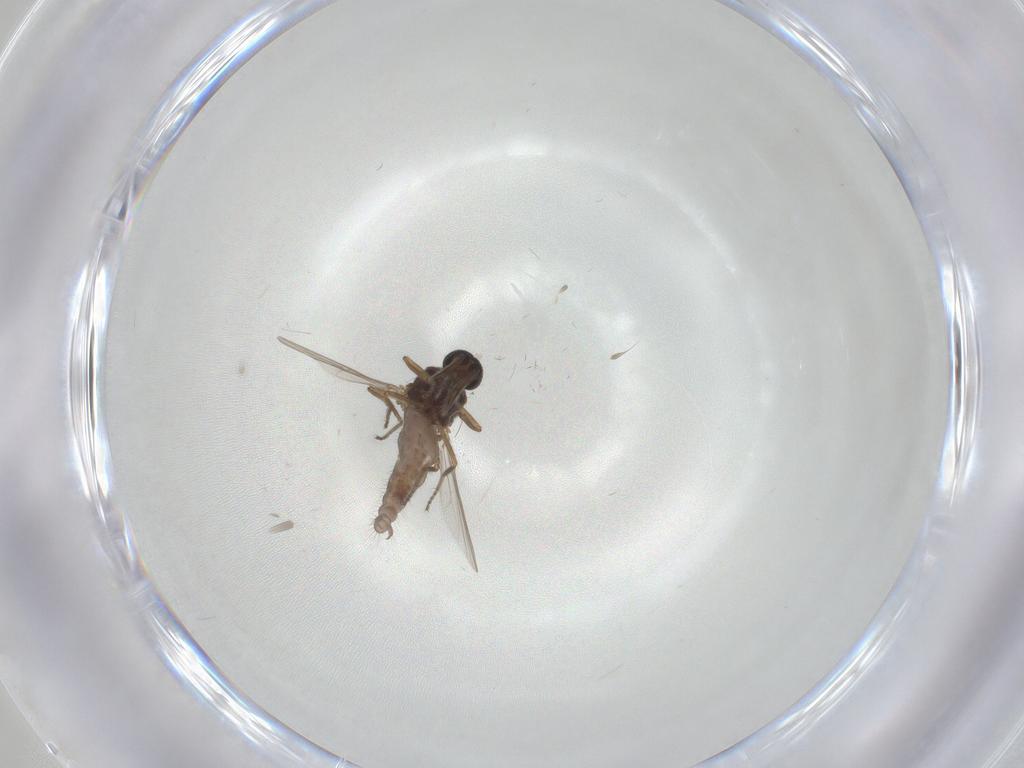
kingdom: Animalia
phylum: Arthropoda
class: Insecta
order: Diptera
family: Ceratopogonidae
